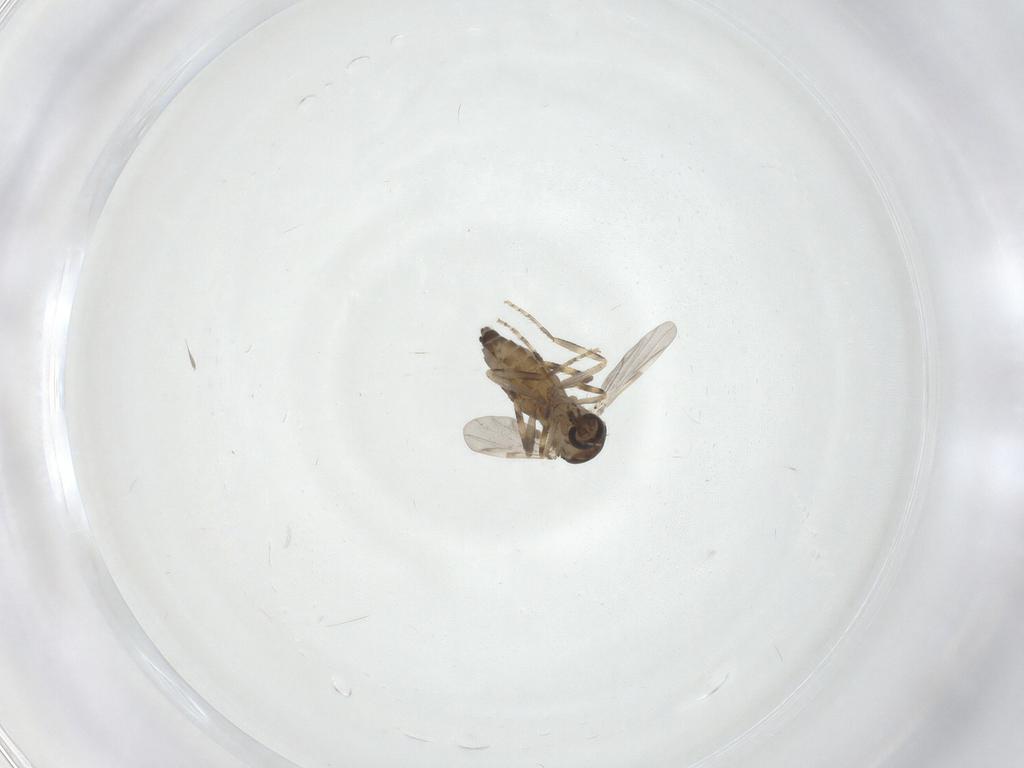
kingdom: Animalia
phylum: Arthropoda
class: Insecta
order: Diptera
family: Ceratopogonidae
